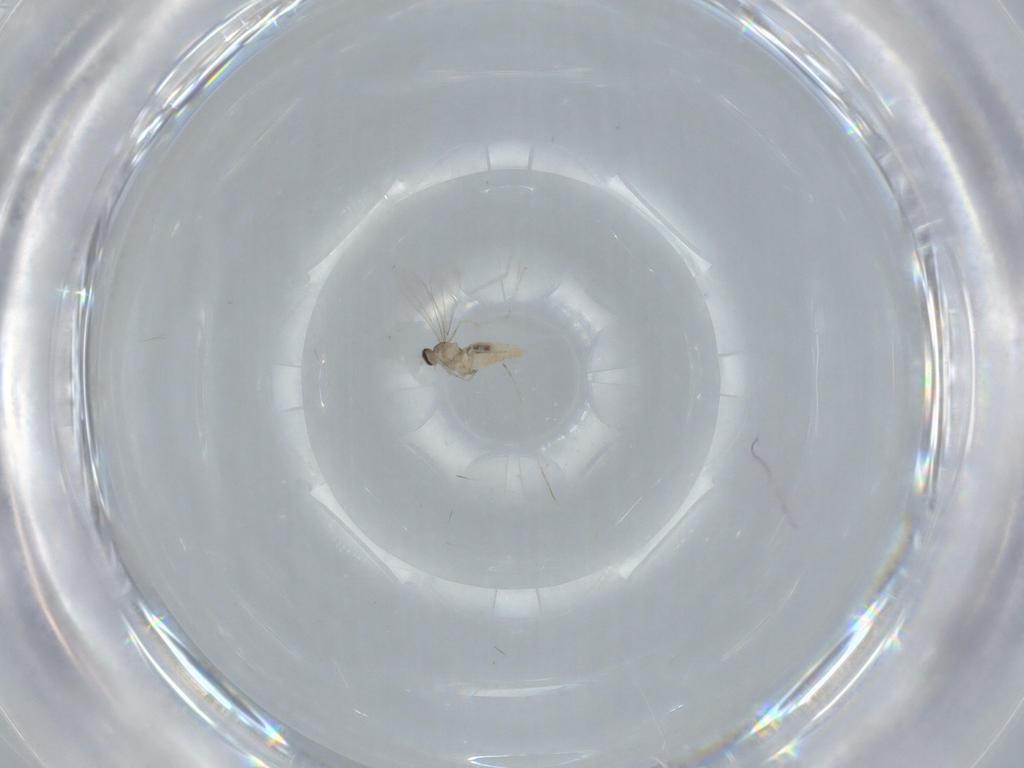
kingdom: Animalia
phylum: Arthropoda
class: Insecta
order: Diptera
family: Cecidomyiidae
